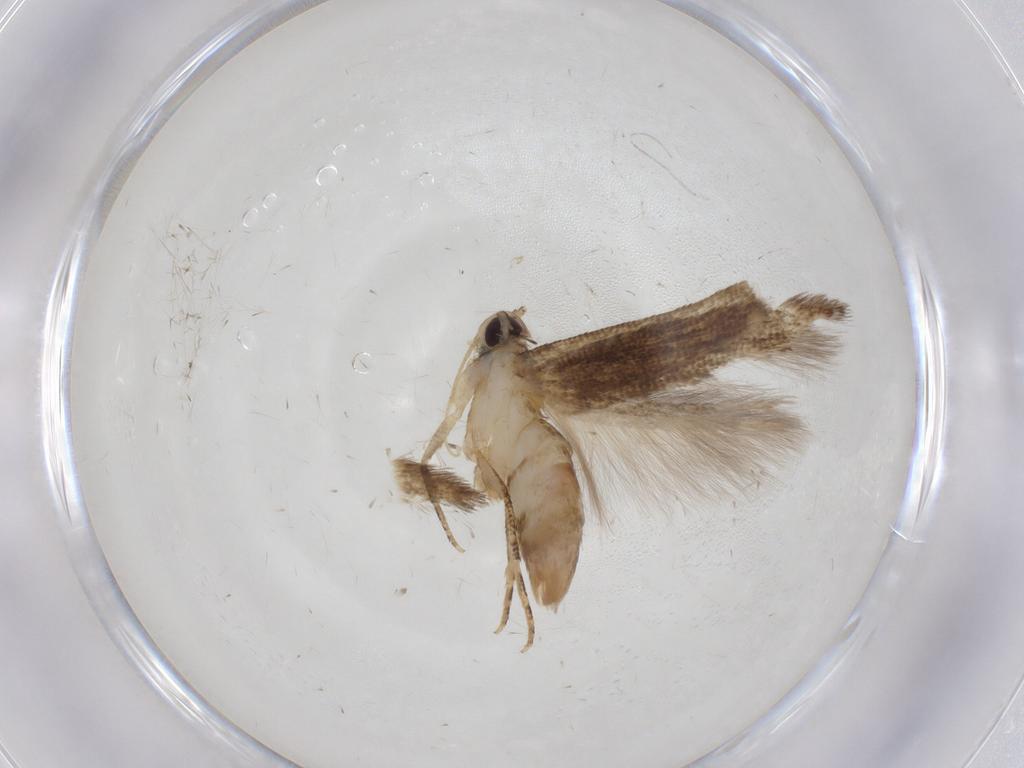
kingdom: Animalia
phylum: Arthropoda
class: Insecta
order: Lepidoptera
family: Cosmopterigidae
